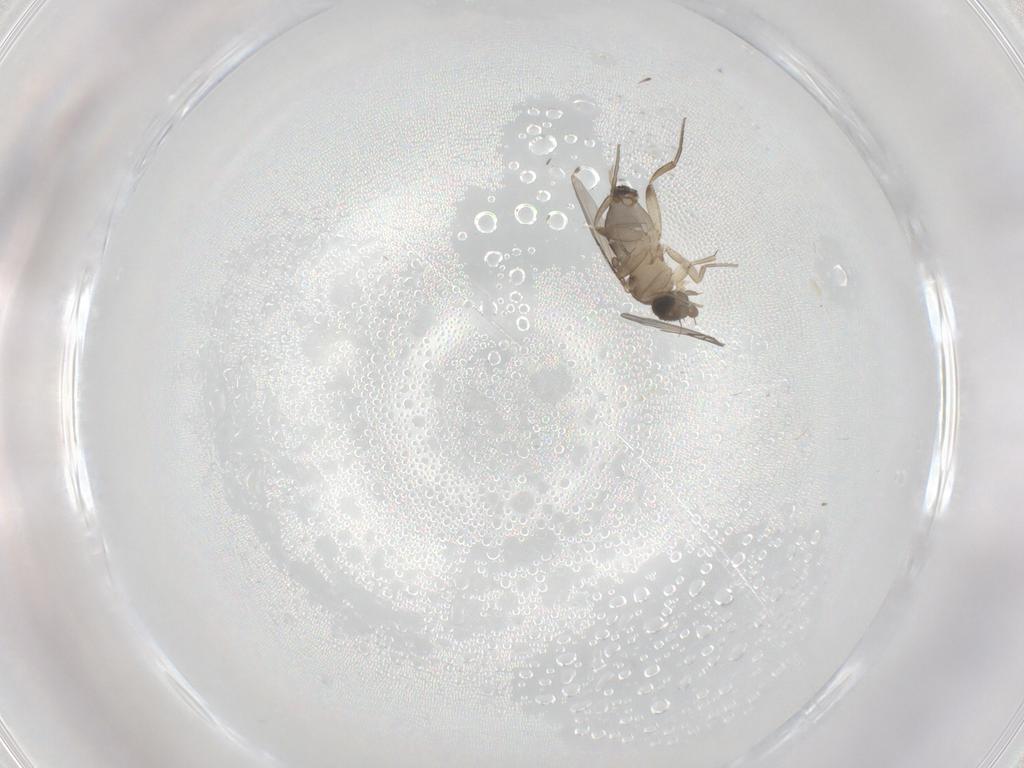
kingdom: Animalia
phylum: Arthropoda
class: Insecta
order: Diptera
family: Phoridae
